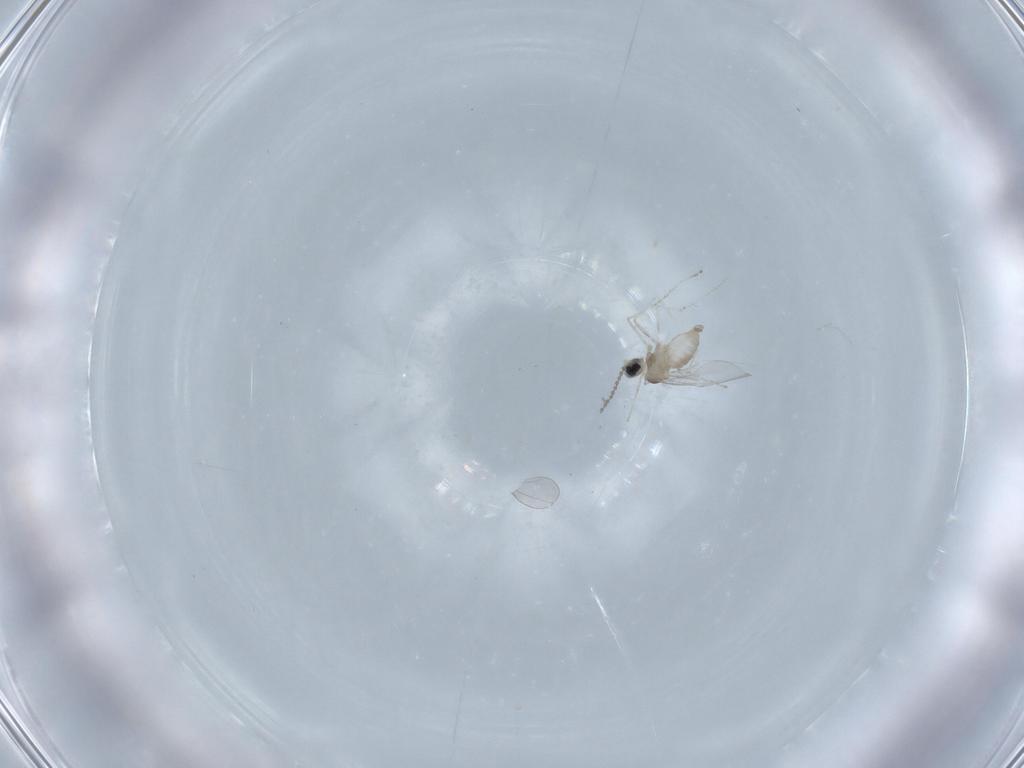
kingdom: Animalia
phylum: Arthropoda
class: Insecta
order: Diptera
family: Cecidomyiidae
